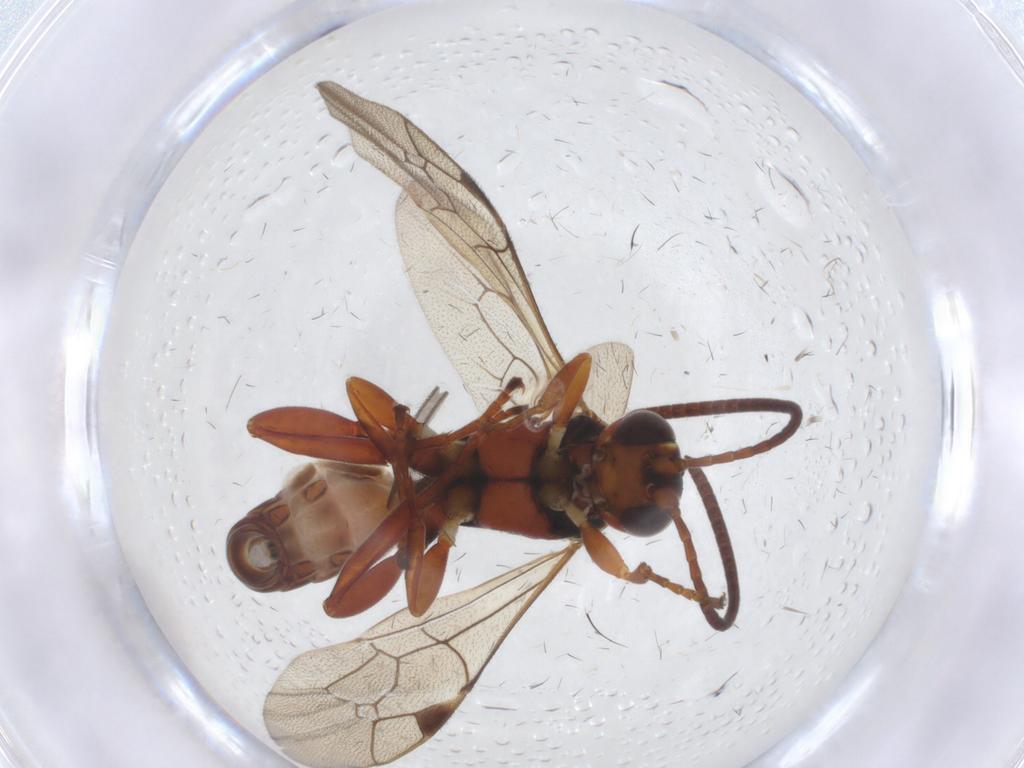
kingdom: Animalia
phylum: Arthropoda
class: Insecta
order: Hymenoptera
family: Ichneumonidae
